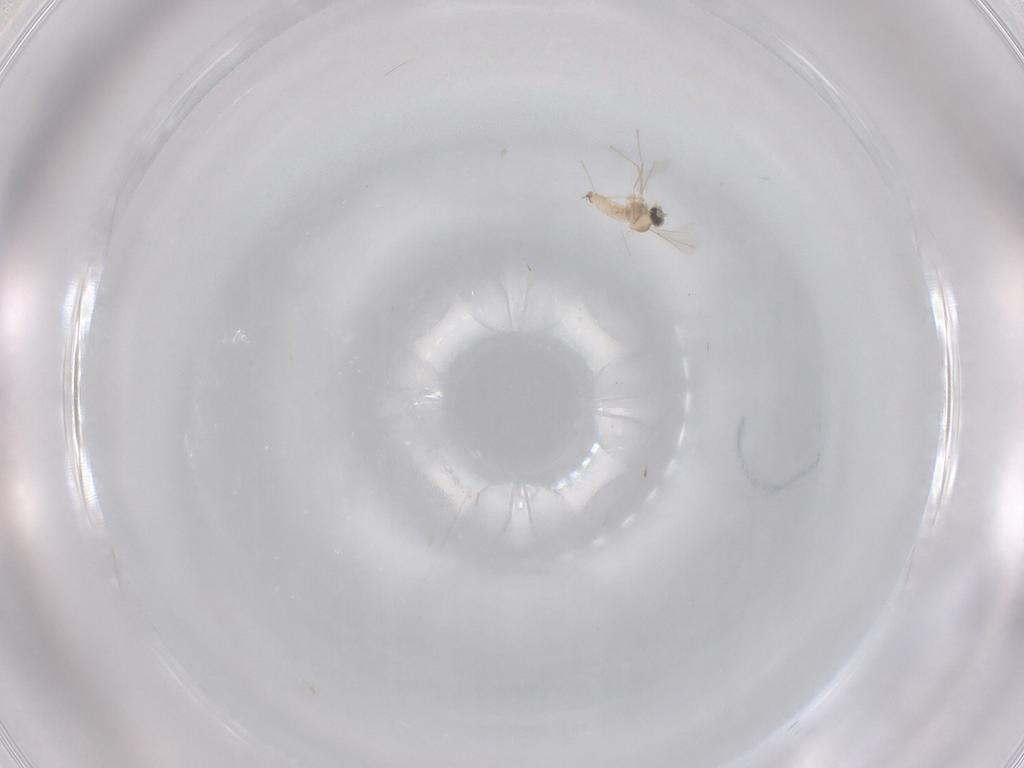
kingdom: Animalia
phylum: Arthropoda
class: Insecta
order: Diptera
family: Cecidomyiidae
